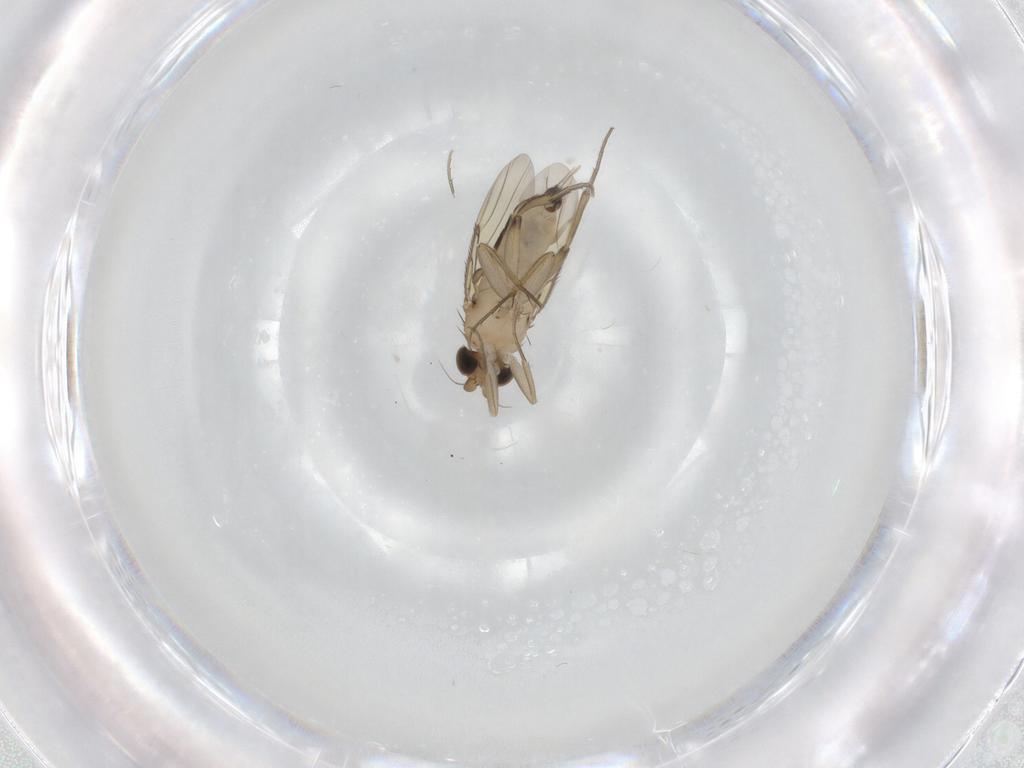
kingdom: Animalia
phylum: Arthropoda
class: Insecta
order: Diptera
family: Phoridae
